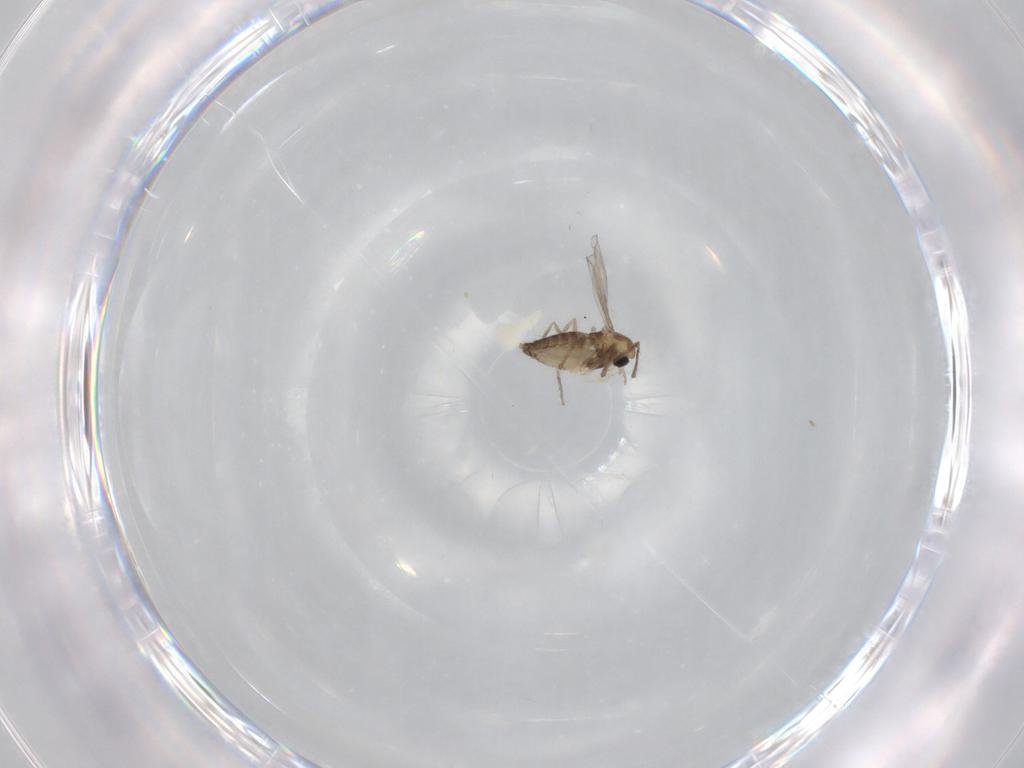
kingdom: Animalia
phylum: Arthropoda
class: Insecta
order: Diptera
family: Chironomidae
